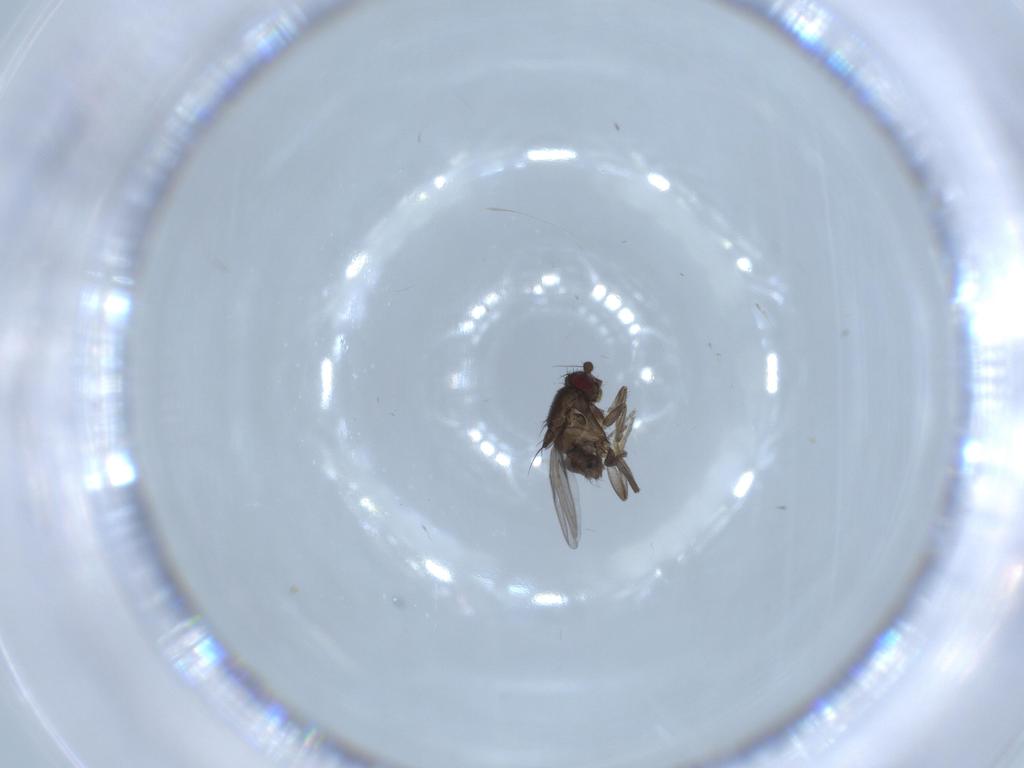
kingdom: Animalia
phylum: Arthropoda
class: Insecta
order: Diptera
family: Sphaeroceridae
